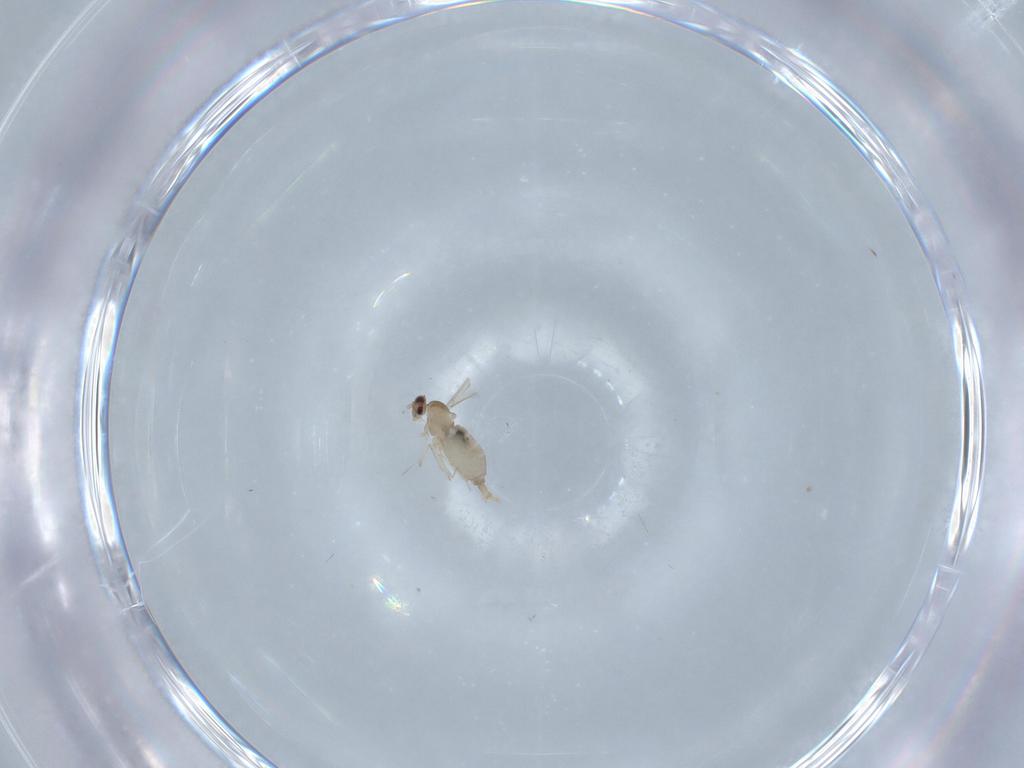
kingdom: Animalia
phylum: Arthropoda
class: Insecta
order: Diptera
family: Cecidomyiidae
